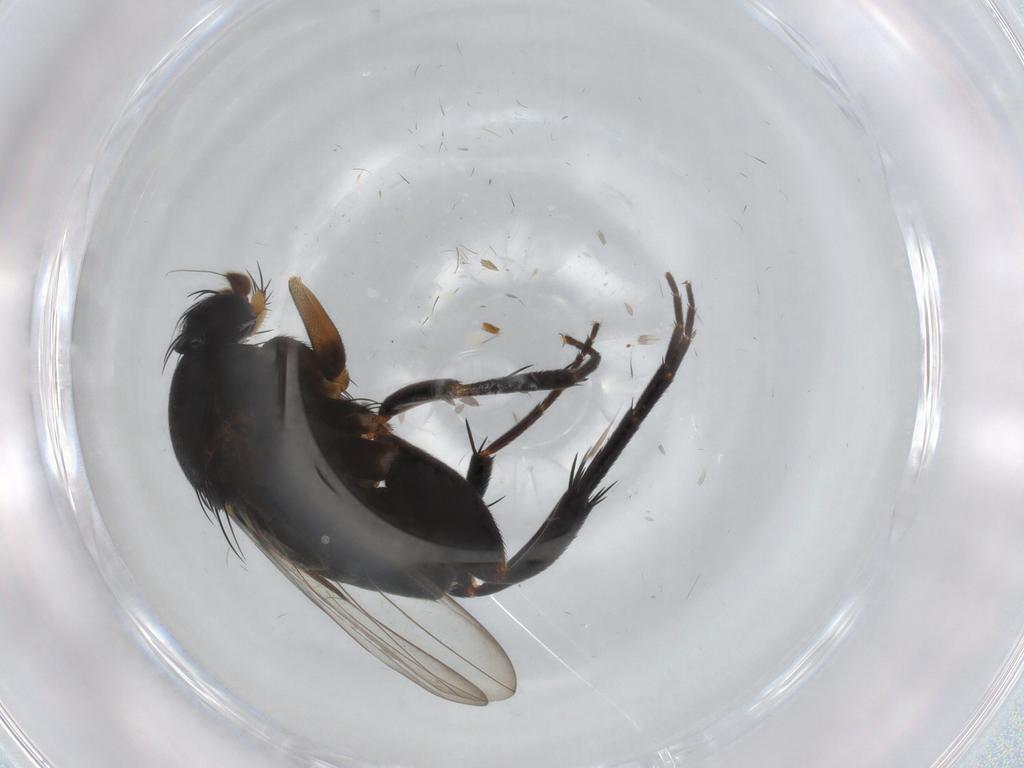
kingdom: Animalia
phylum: Arthropoda
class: Insecta
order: Diptera
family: Phoridae
